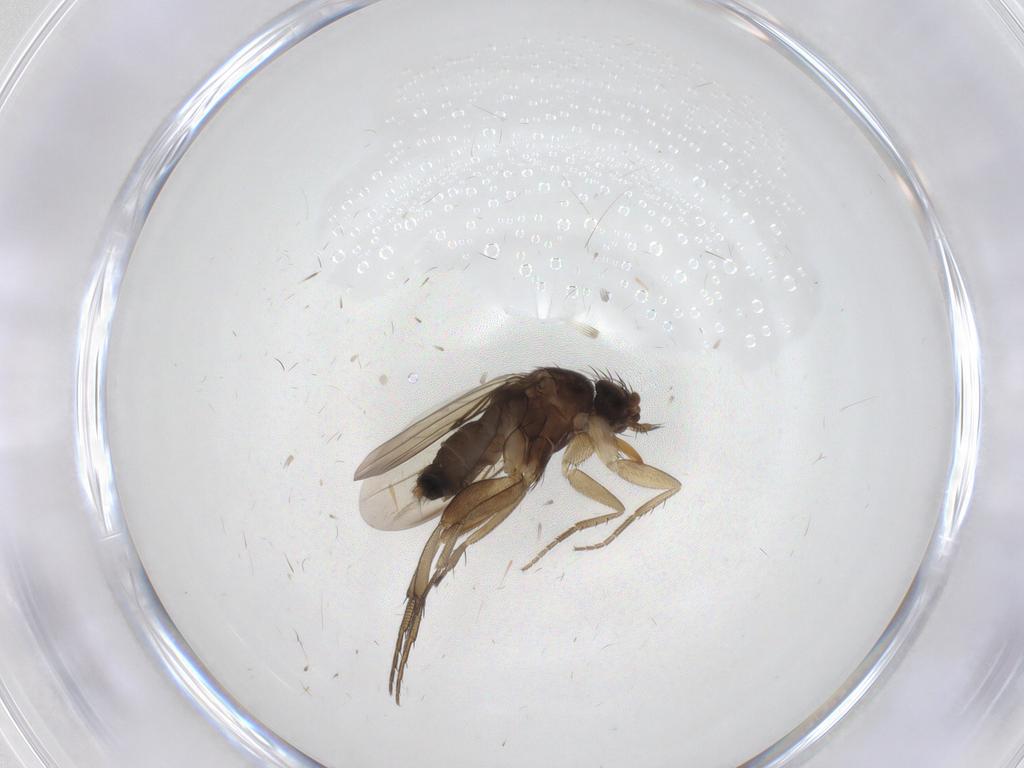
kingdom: Animalia
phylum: Arthropoda
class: Insecta
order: Diptera
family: Phoridae
